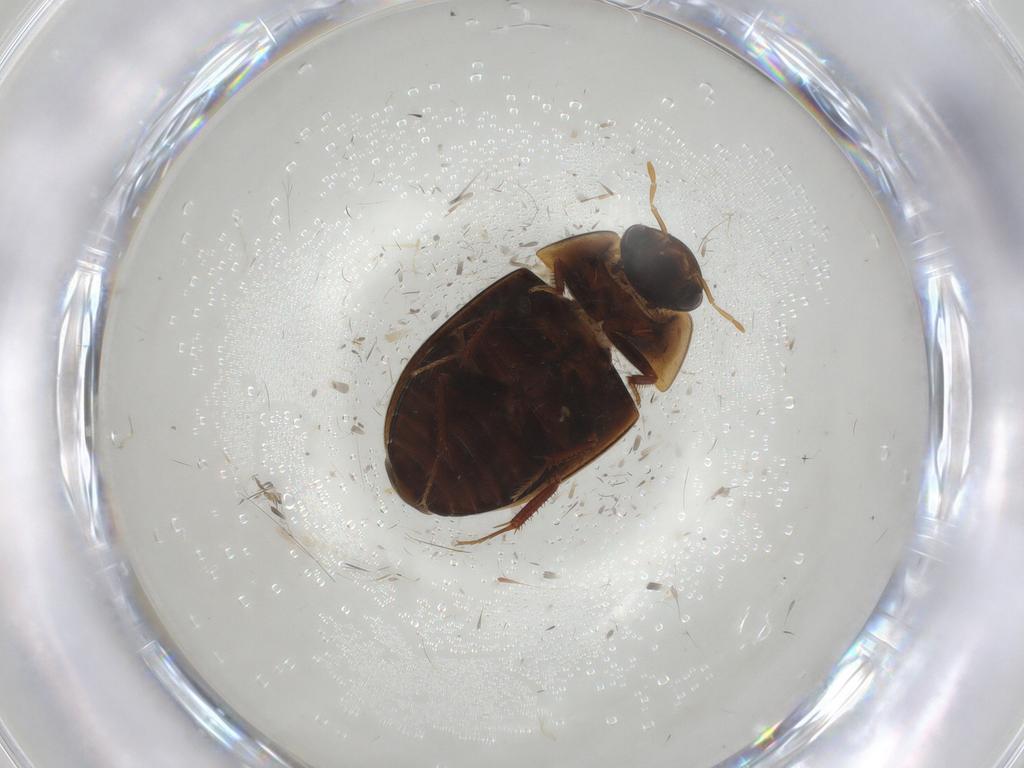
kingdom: Animalia
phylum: Arthropoda
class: Insecta
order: Coleoptera
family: Hydrophilidae
